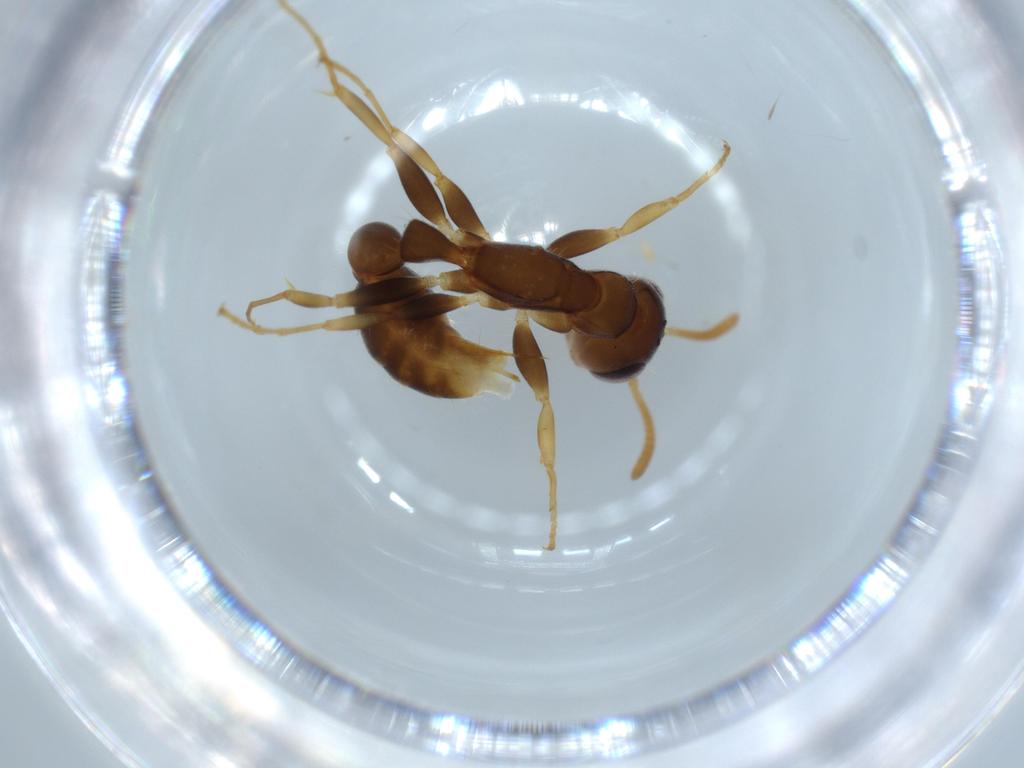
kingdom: Animalia
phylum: Arthropoda
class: Insecta
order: Hymenoptera
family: Formicidae
